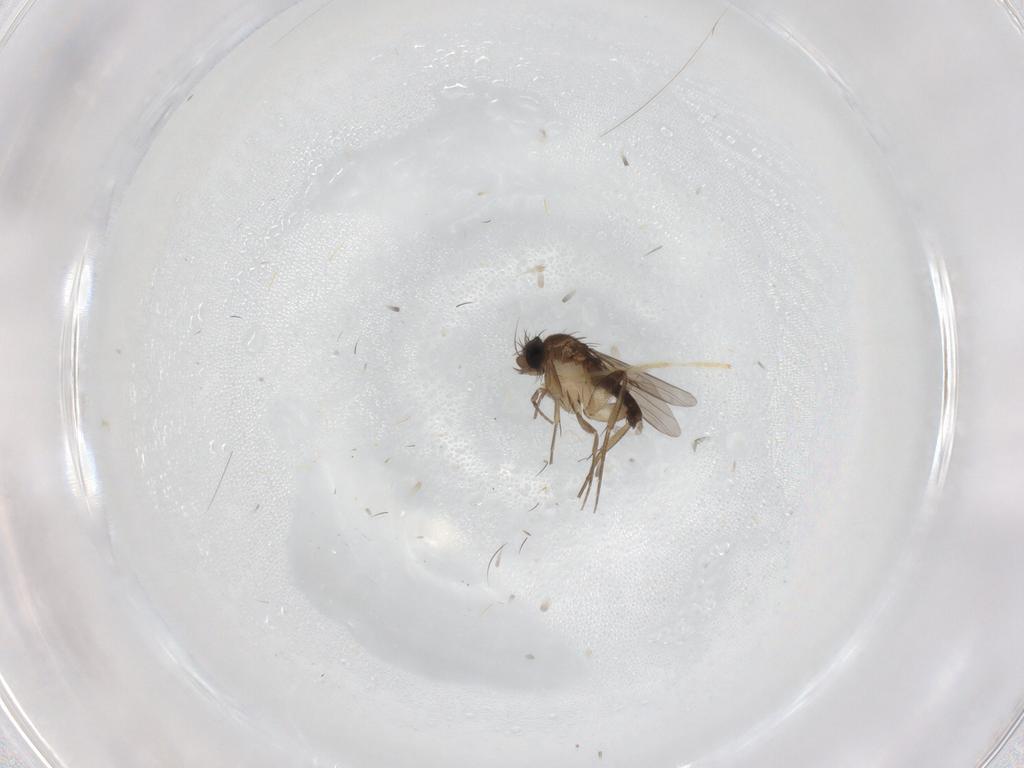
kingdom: Animalia
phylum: Arthropoda
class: Insecta
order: Diptera
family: Phoridae
